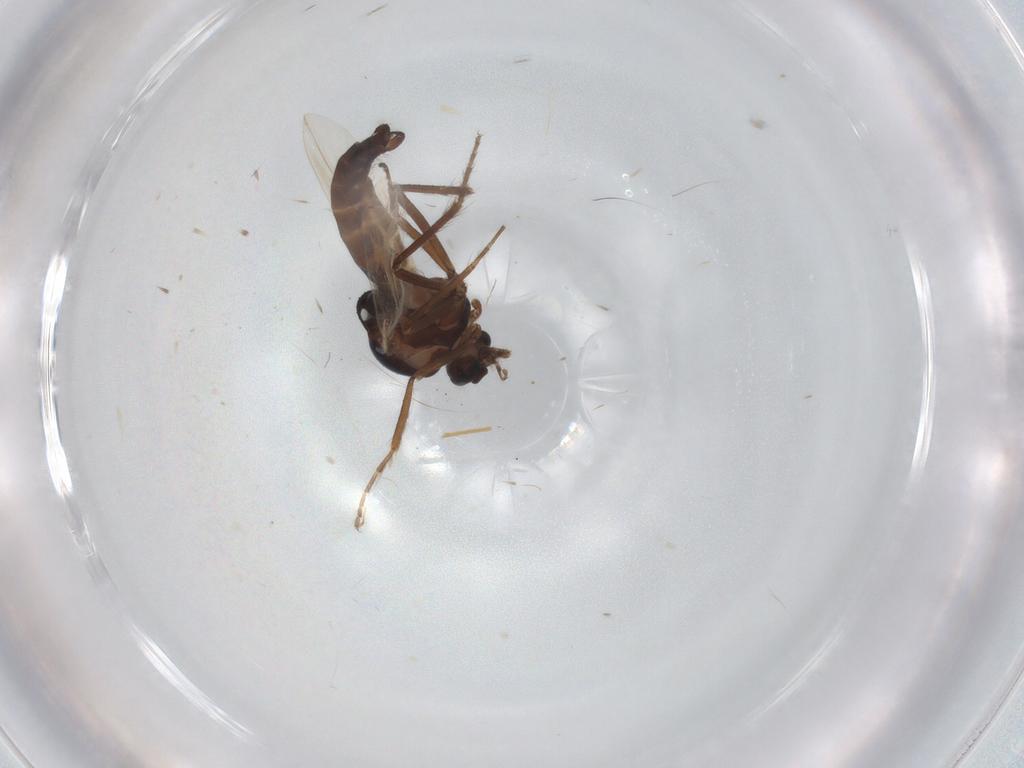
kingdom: Animalia
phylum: Arthropoda
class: Insecta
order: Diptera
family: Ceratopogonidae
